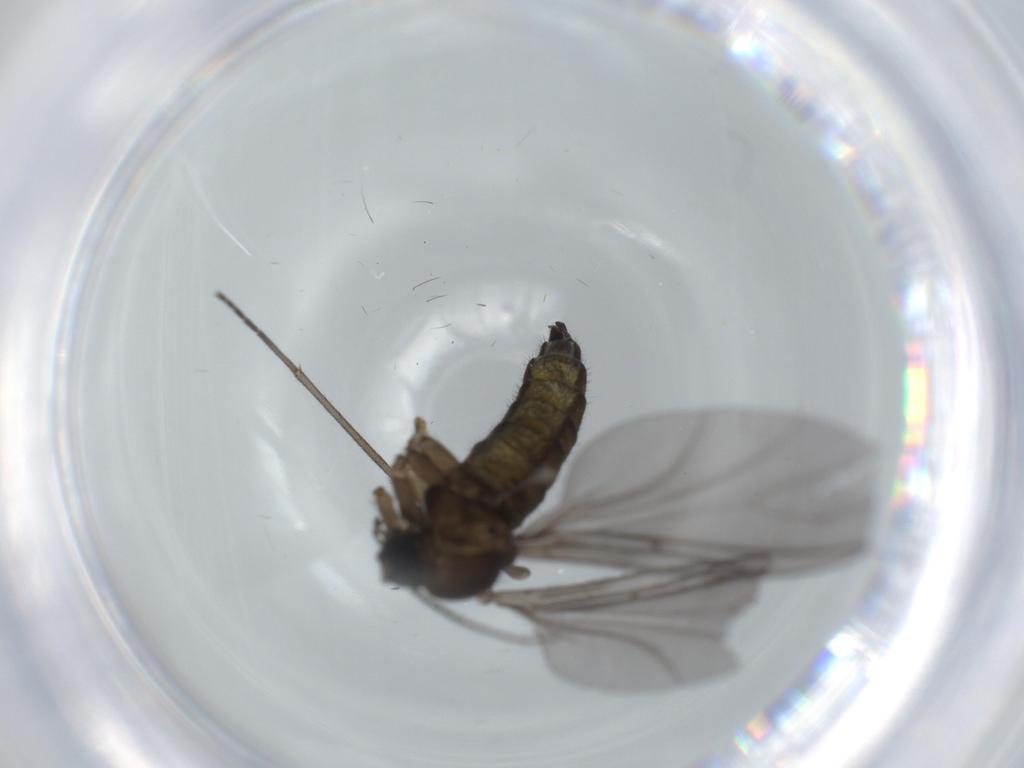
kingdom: Animalia
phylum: Arthropoda
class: Insecta
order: Diptera
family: Sciaridae
